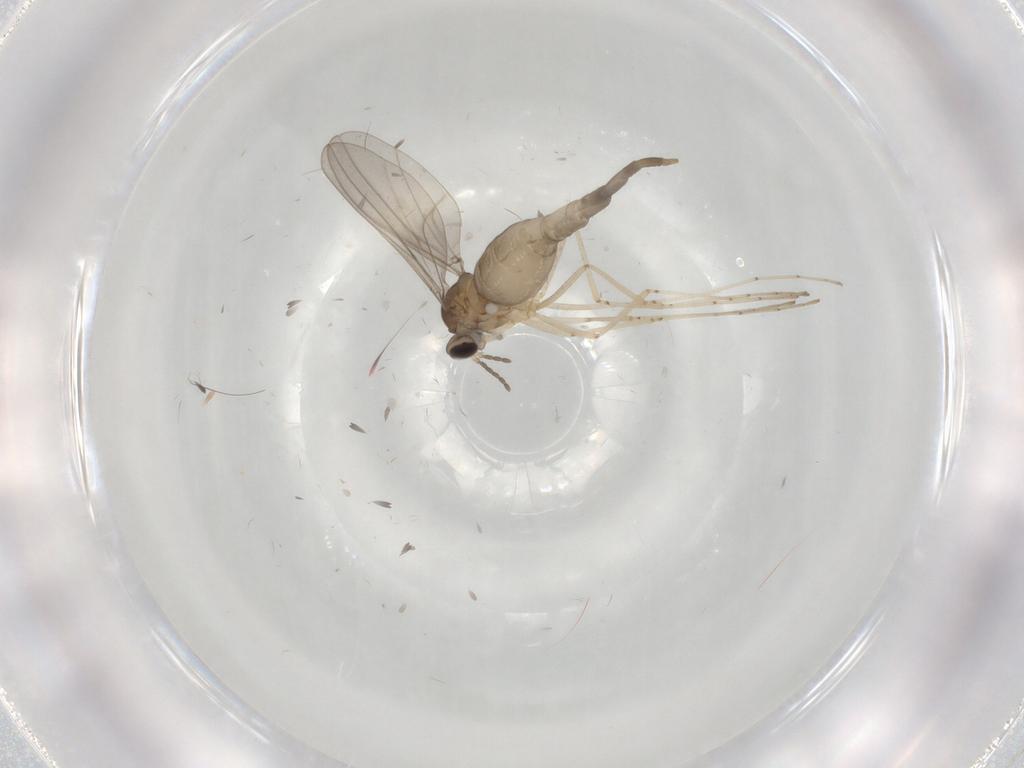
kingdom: Animalia
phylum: Arthropoda
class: Insecta
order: Diptera
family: Cecidomyiidae
